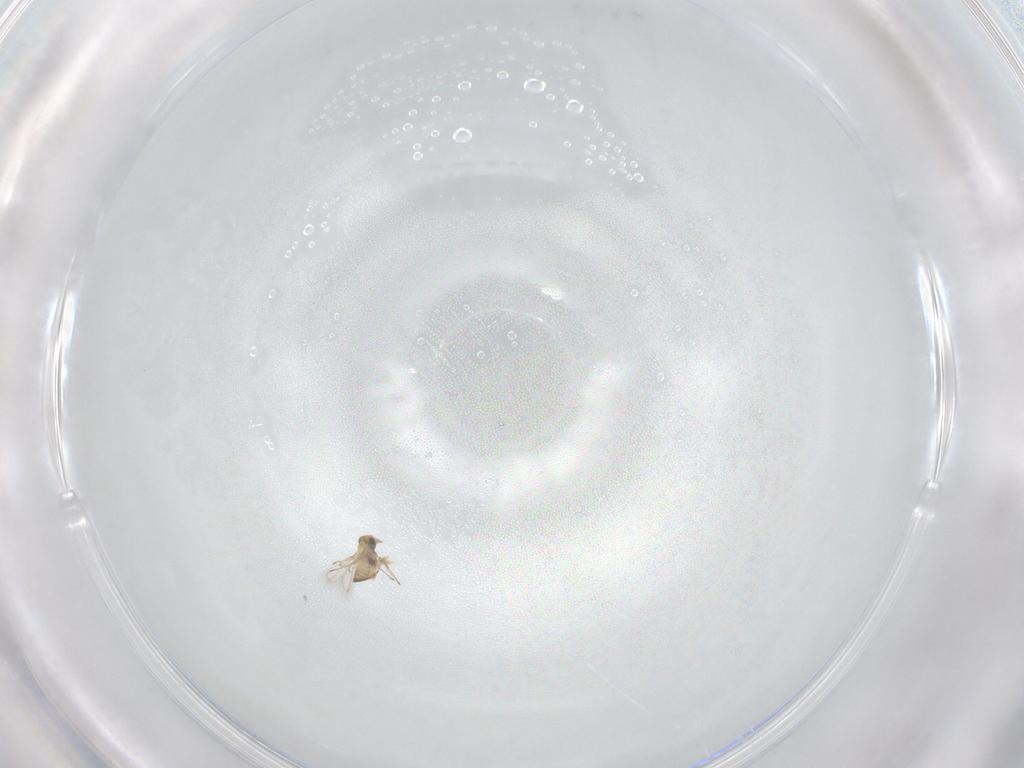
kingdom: Animalia
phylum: Arthropoda
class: Insecta
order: Hymenoptera
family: Trichogrammatidae
